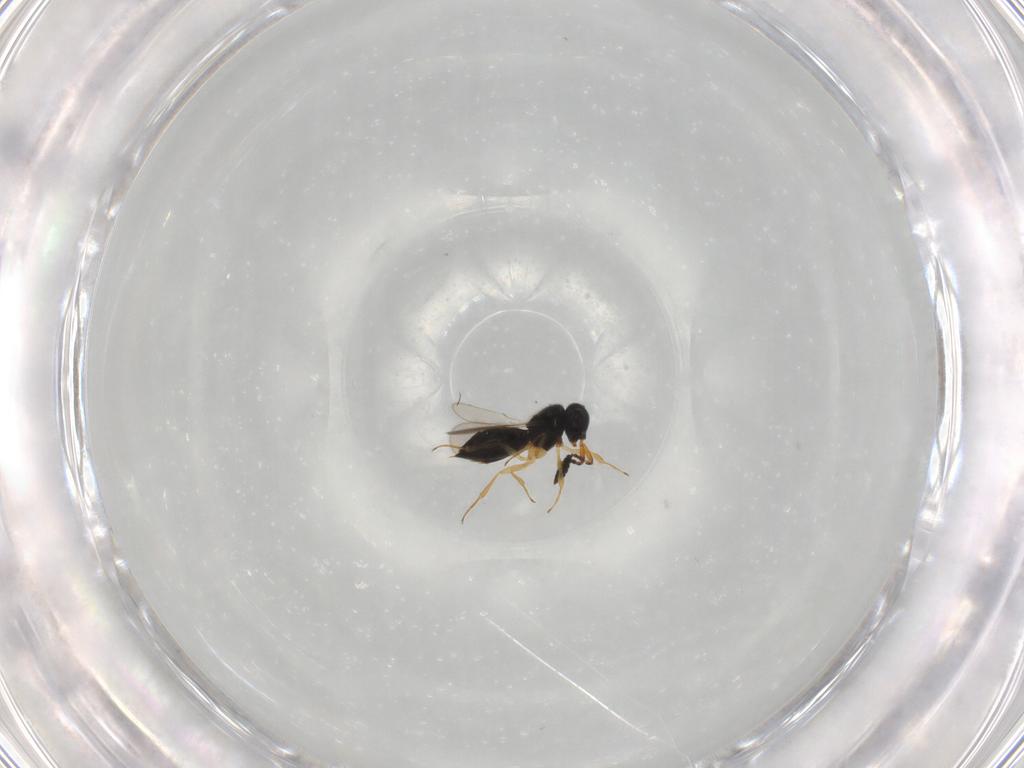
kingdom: Animalia
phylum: Arthropoda
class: Insecta
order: Hymenoptera
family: Scelionidae
